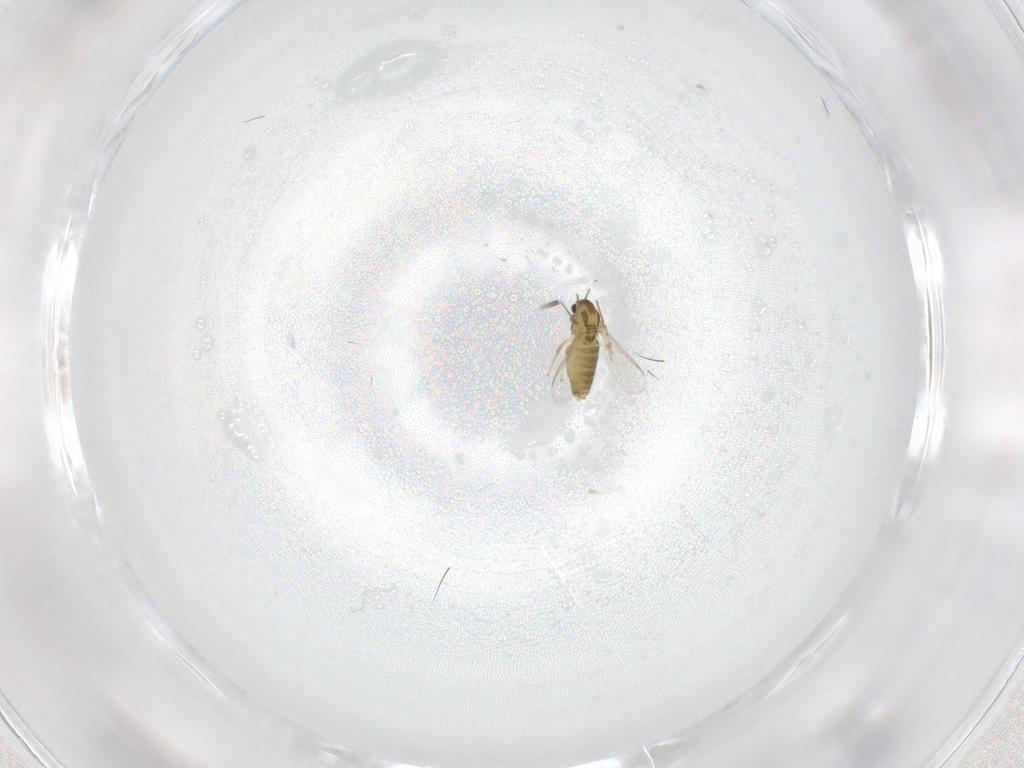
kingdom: Animalia
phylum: Arthropoda
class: Insecta
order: Diptera
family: Chironomidae
